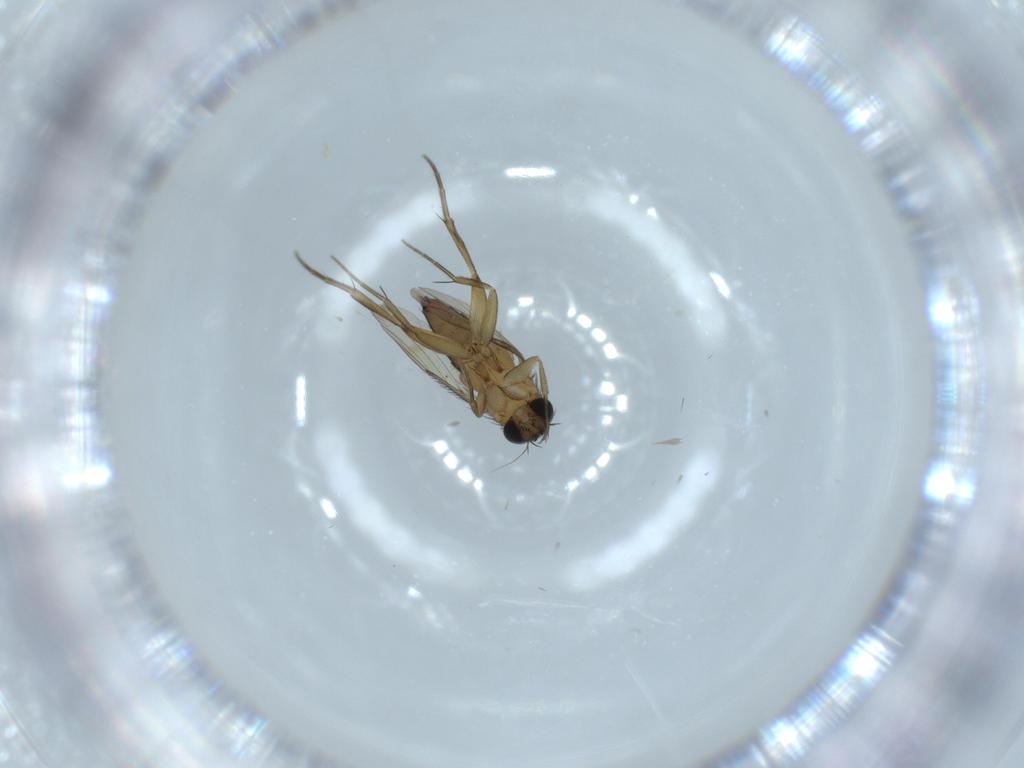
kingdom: Animalia
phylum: Arthropoda
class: Insecta
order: Diptera
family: Phoridae
